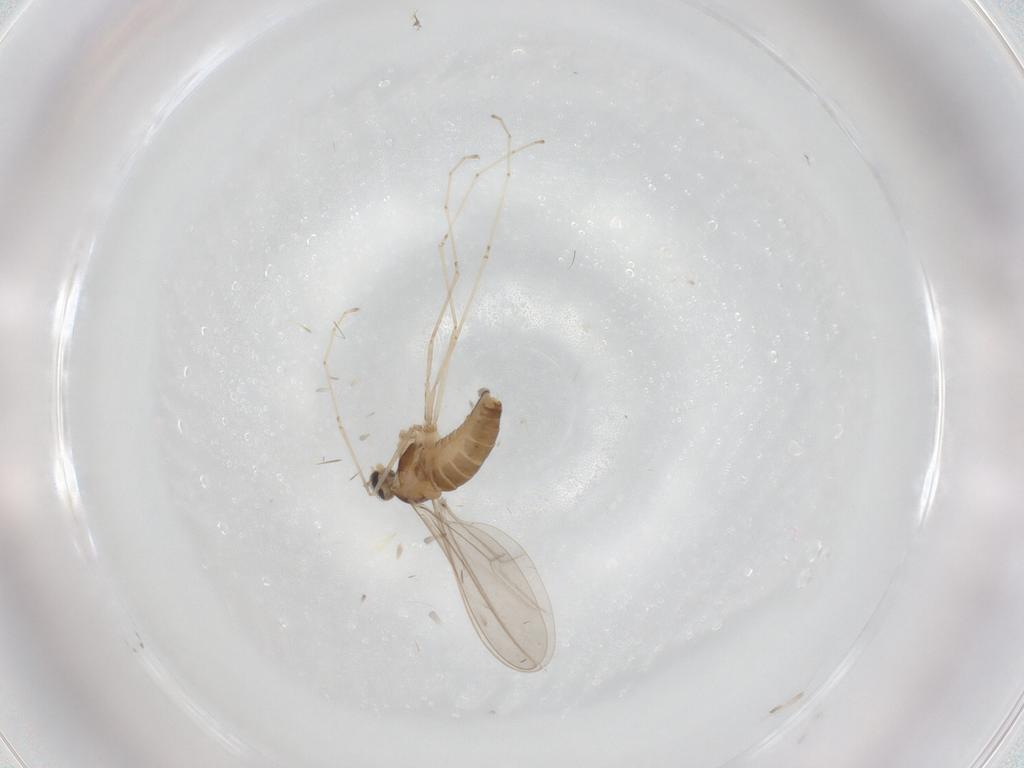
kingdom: Animalia
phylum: Arthropoda
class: Insecta
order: Diptera
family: Cecidomyiidae
